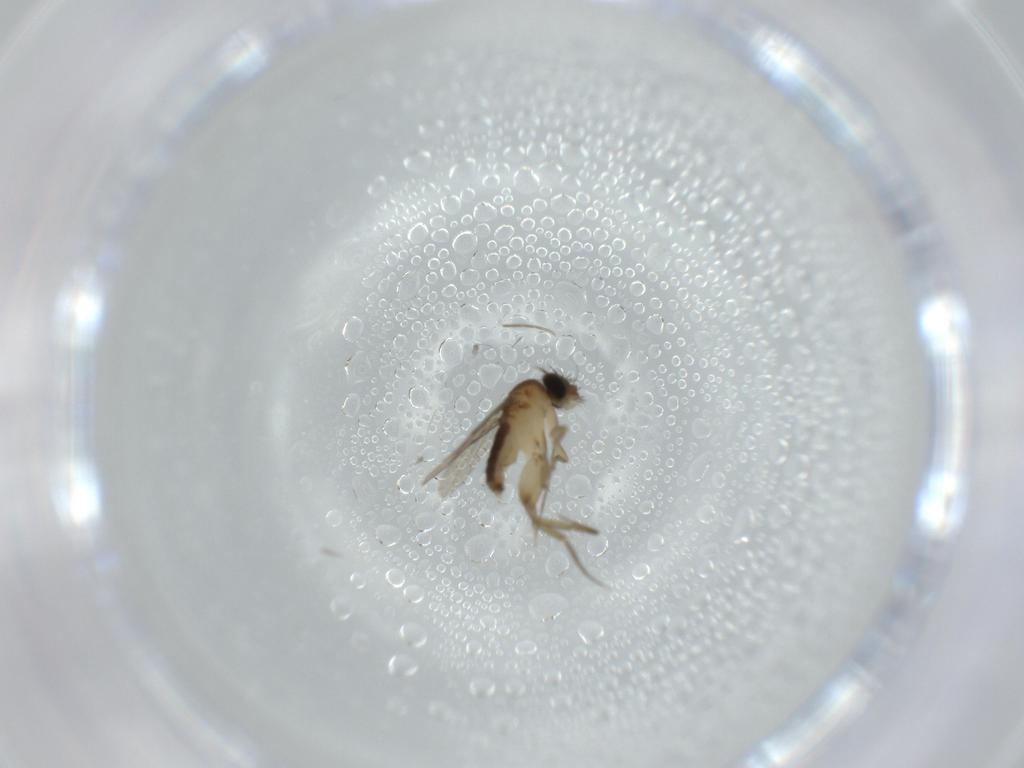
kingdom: Animalia
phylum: Arthropoda
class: Insecta
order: Diptera
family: Phoridae
